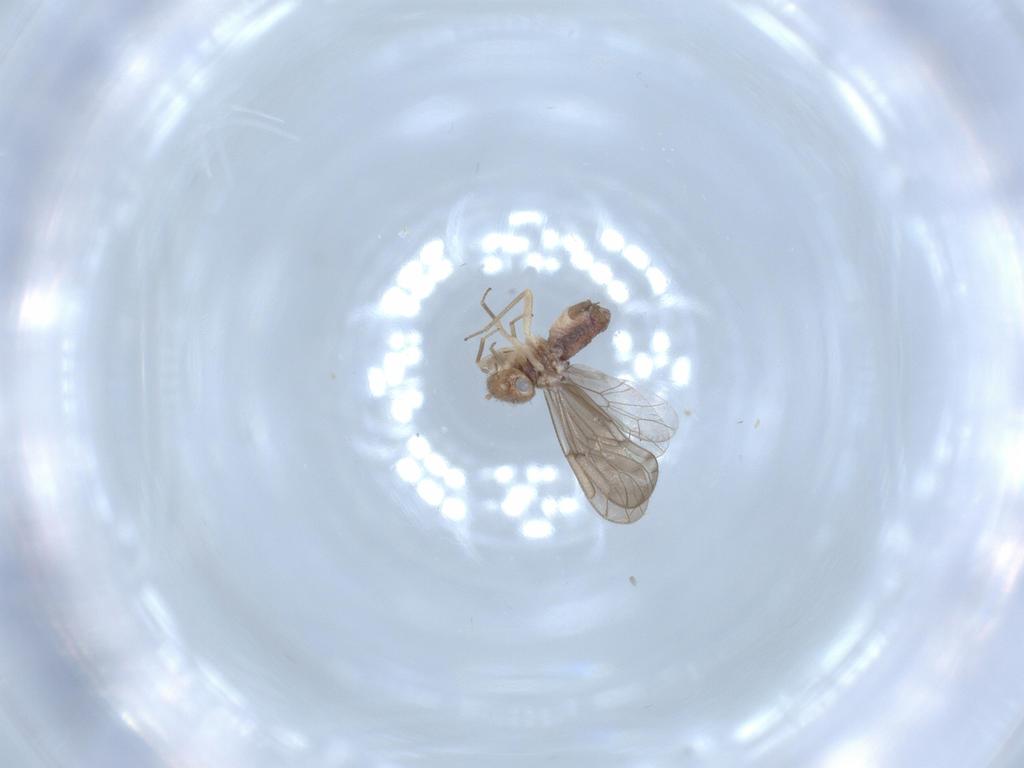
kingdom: Animalia
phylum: Arthropoda
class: Insecta
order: Psocodea
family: Ectopsocidae
